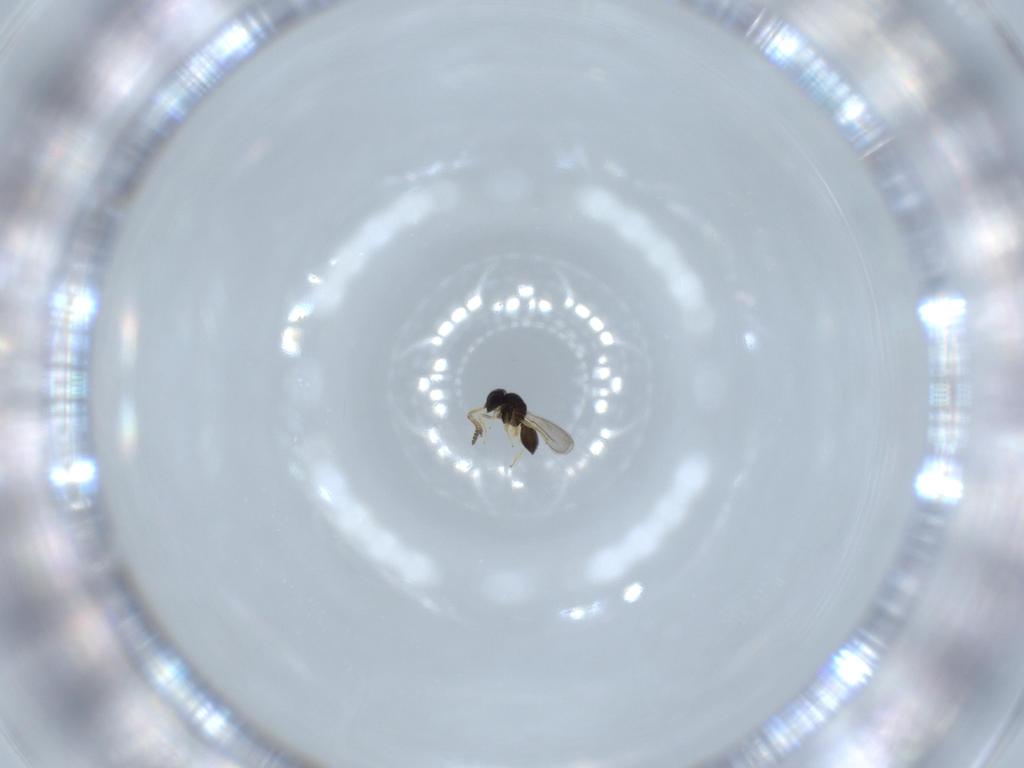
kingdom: Animalia
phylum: Arthropoda
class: Insecta
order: Hymenoptera
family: Scelionidae
